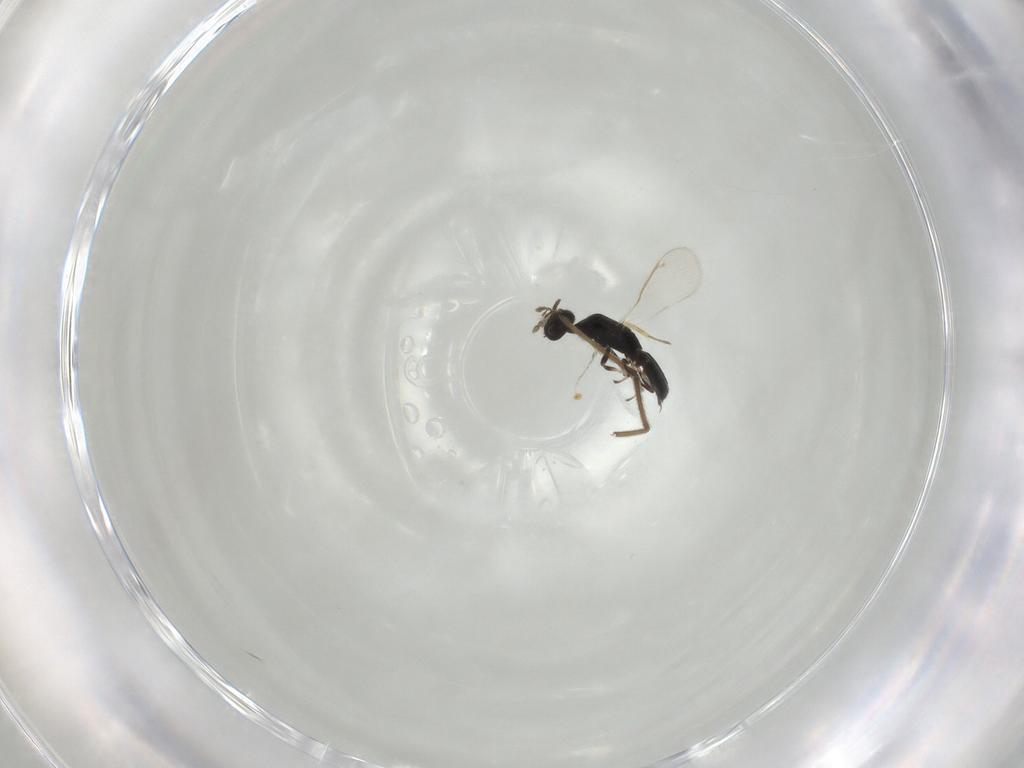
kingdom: Animalia
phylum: Arthropoda
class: Insecta
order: Hymenoptera
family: Eulophidae
